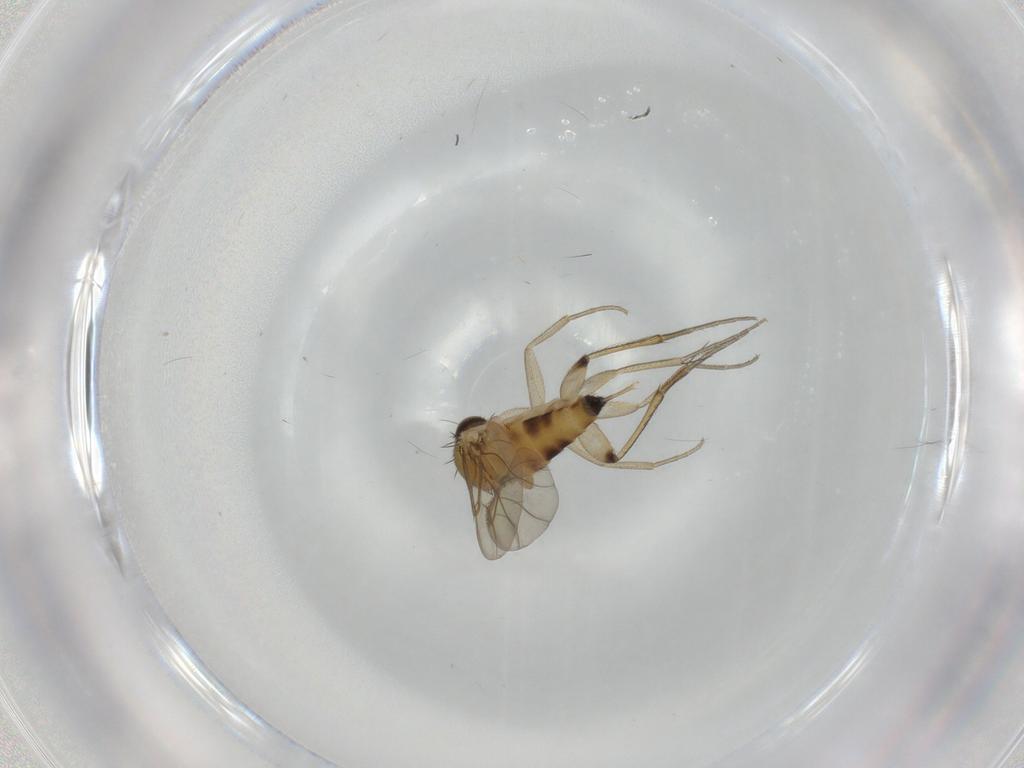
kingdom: Animalia
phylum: Arthropoda
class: Insecta
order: Diptera
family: Phoridae
